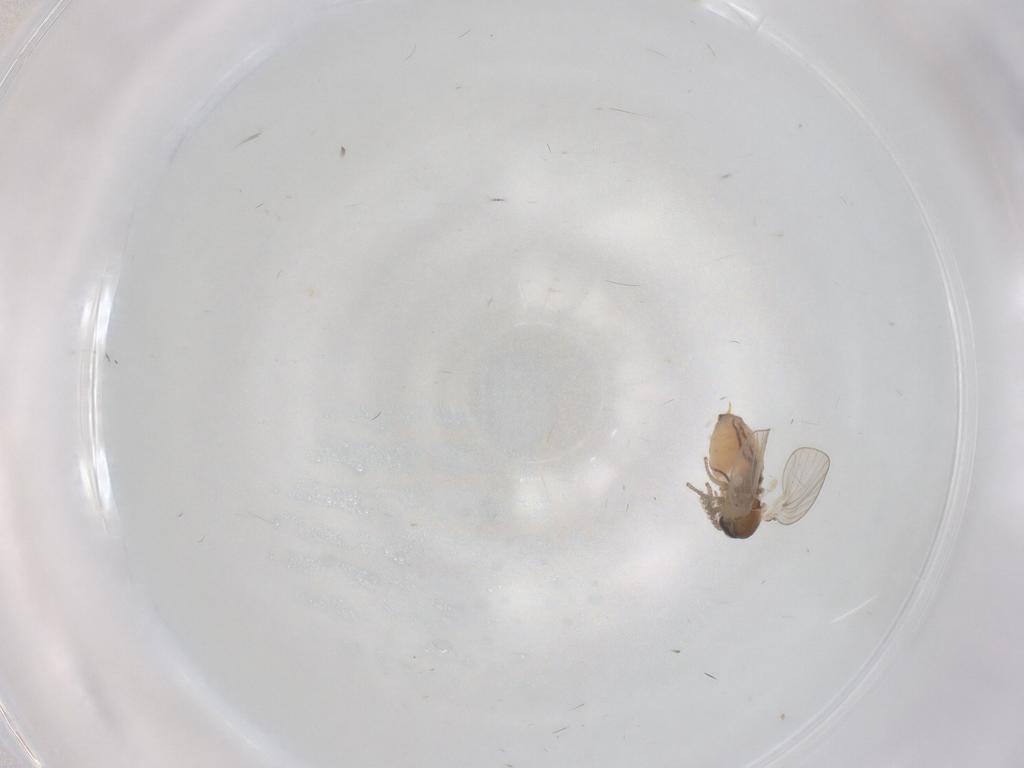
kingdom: Animalia
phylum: Arthropoda
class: Insecta
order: Diptera
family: Psychodidae
